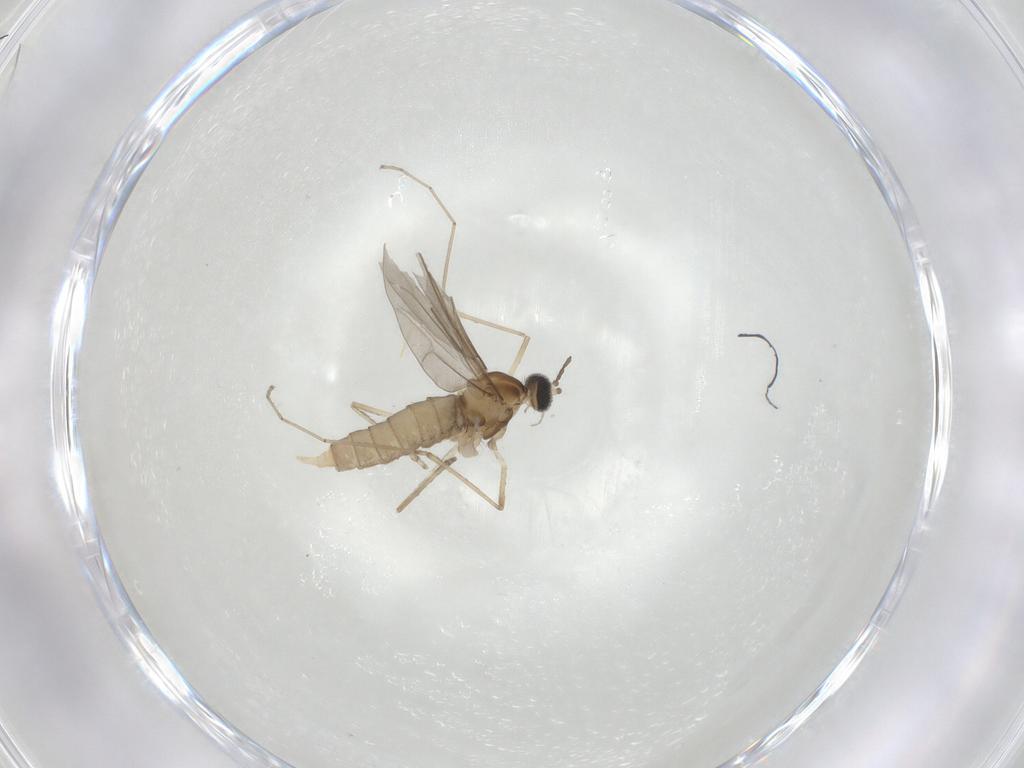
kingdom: Animalia
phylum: Arthropoda
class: Insecta
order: Diptera
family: Cecidomyiidae
